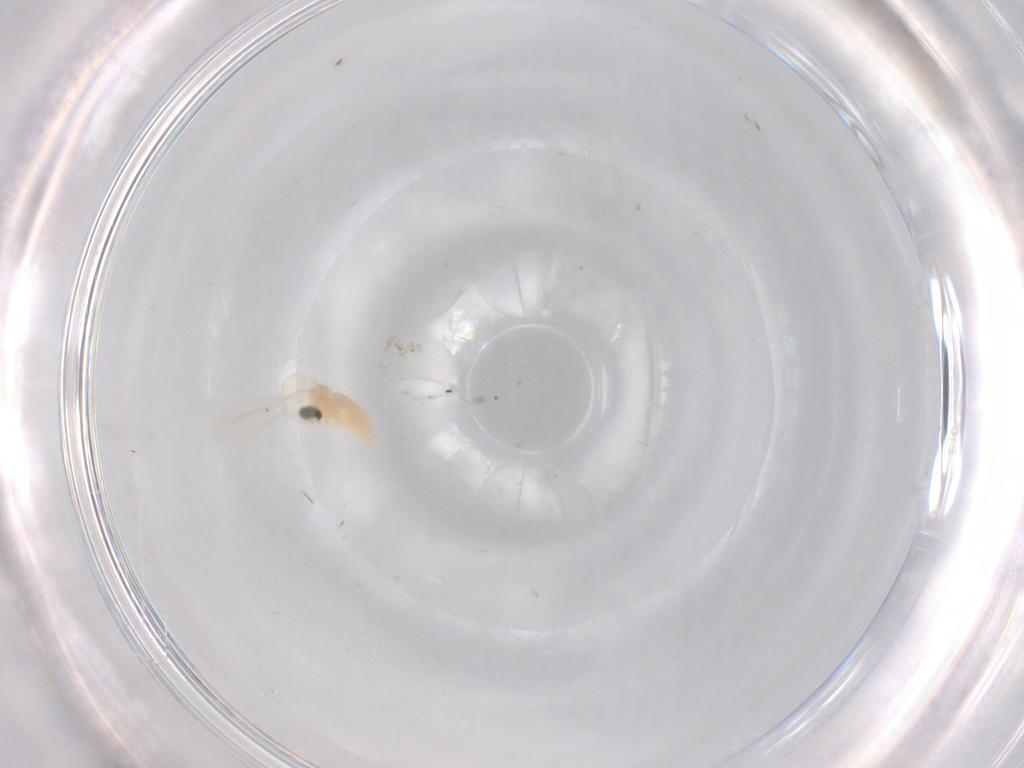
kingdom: Animalia
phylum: Arthropoda
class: Insecta
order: Diptera
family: Cecidomyiidae
